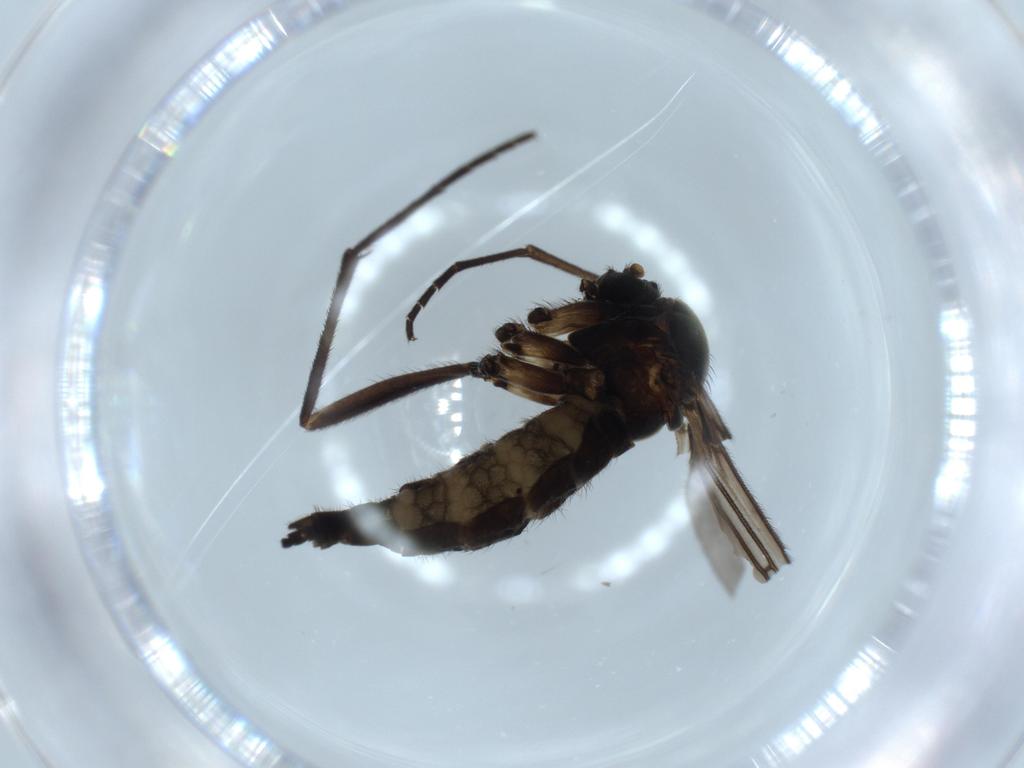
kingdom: Animalia
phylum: Arthropoda
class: Insecta
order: Diptera
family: Sciaridae
